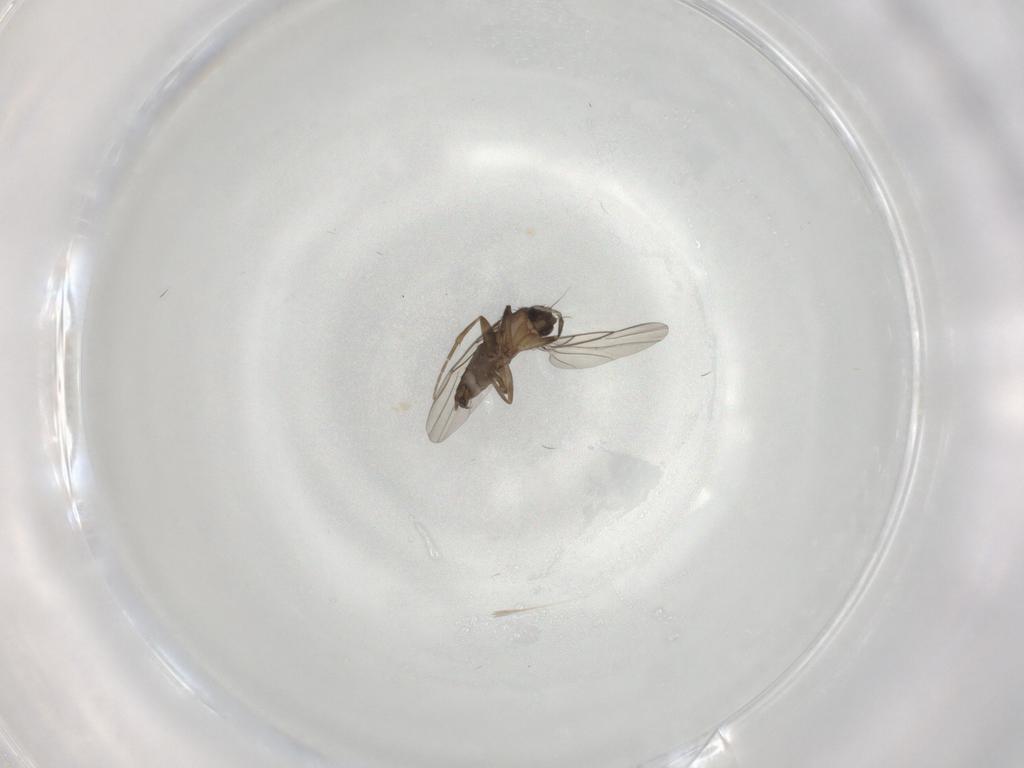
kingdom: Animalia
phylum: Arthropoda
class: Insecta
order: Diptera
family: Phoridae
